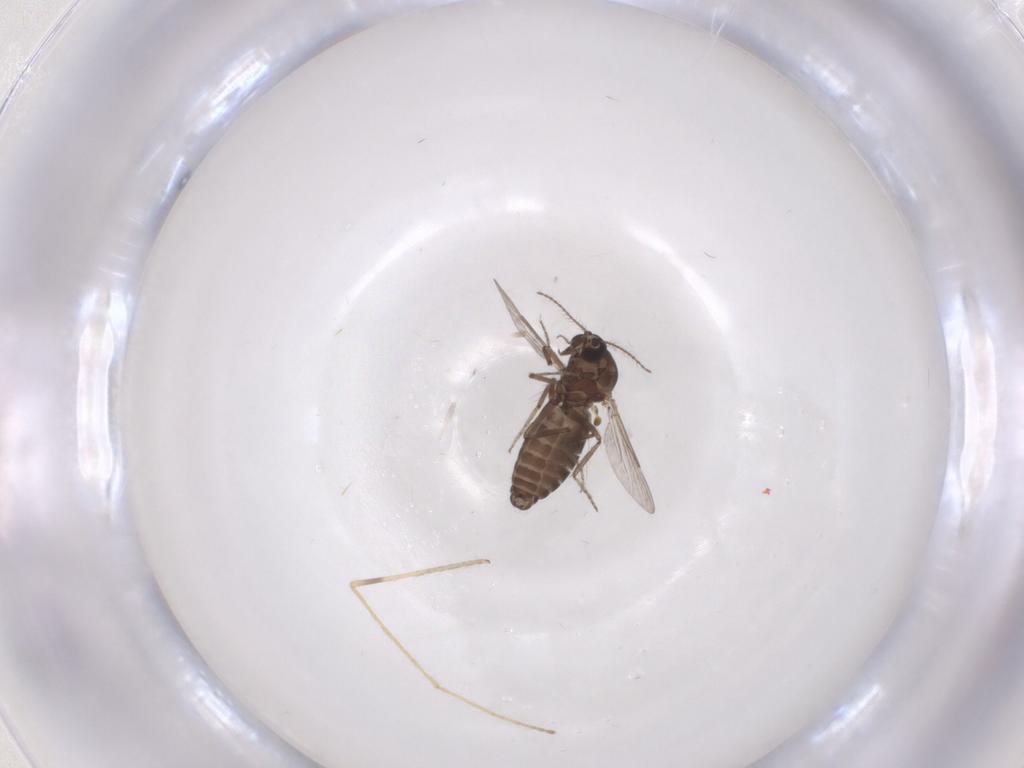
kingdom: Animalia
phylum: Arthropoda
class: Insecta
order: Diptera
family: Ceratopogonidae
